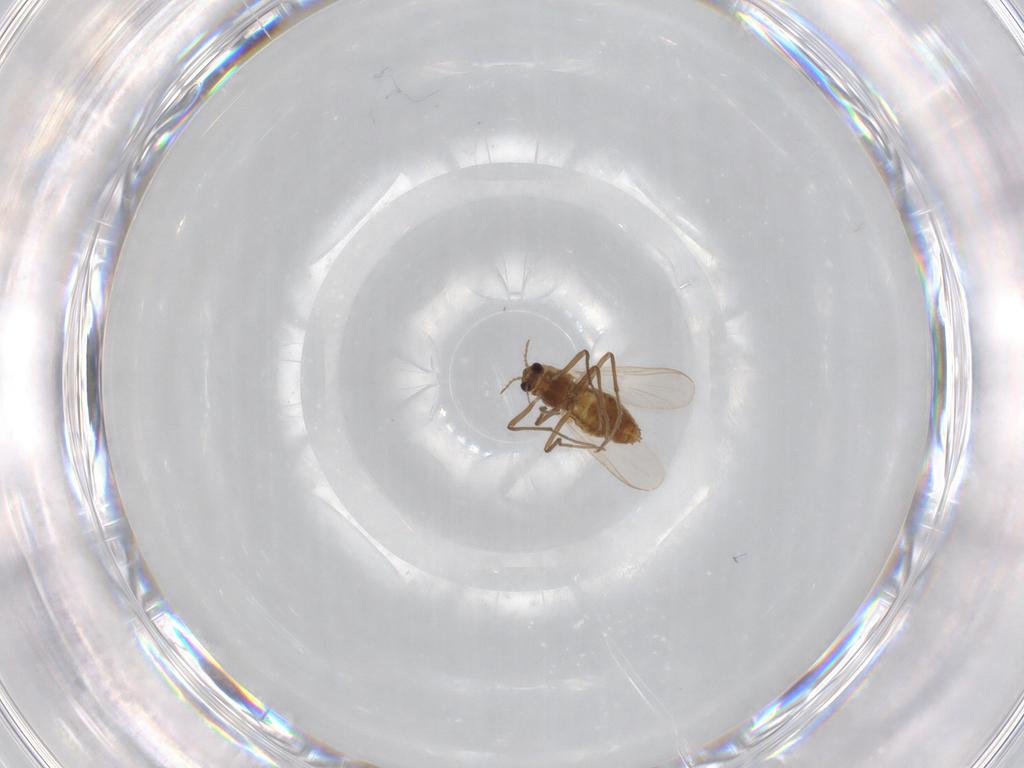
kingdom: Animalia
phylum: Arthropoda
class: Insecta
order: Diptera
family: Chironomidae
